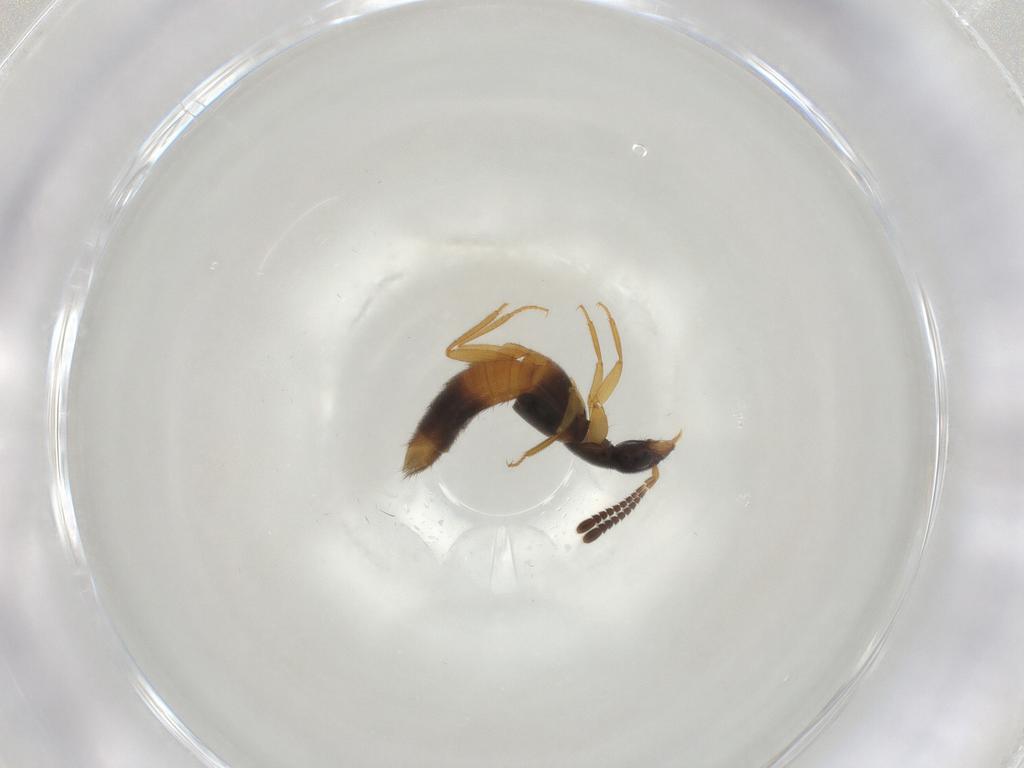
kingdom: Animalia
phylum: Arthropoda
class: Insecta
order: Coleoptera
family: Staphylinidae
